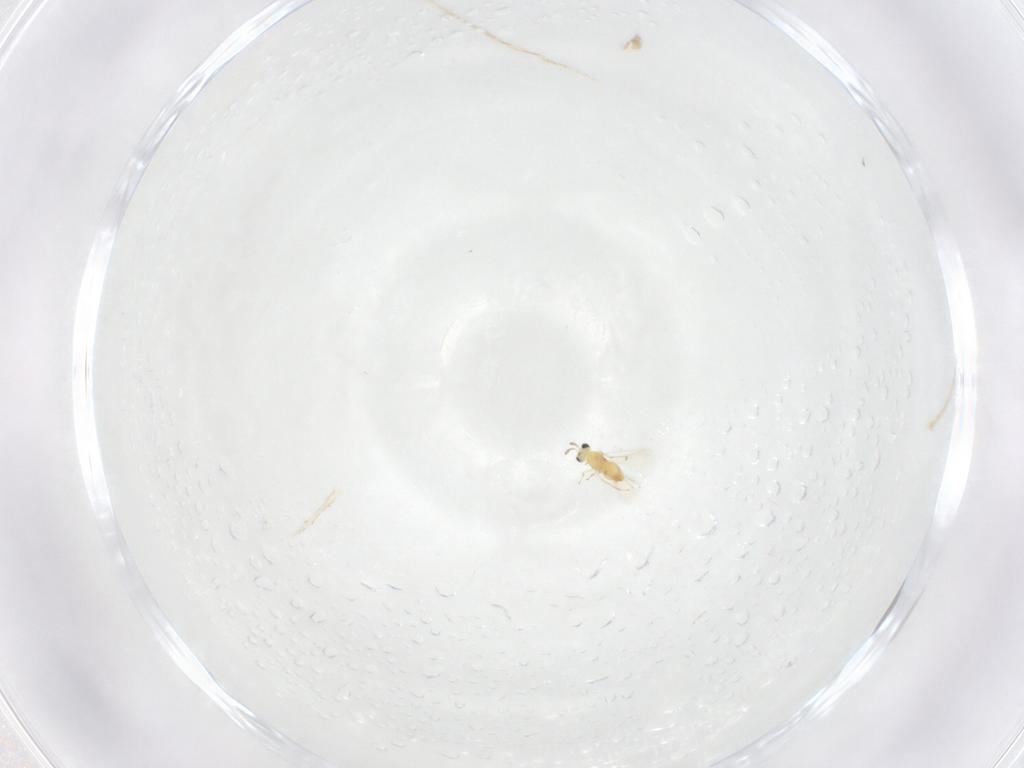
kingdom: Animalia
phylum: Arthropoda
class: Insecta
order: Hymenoptera
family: Trichogrammatidae
